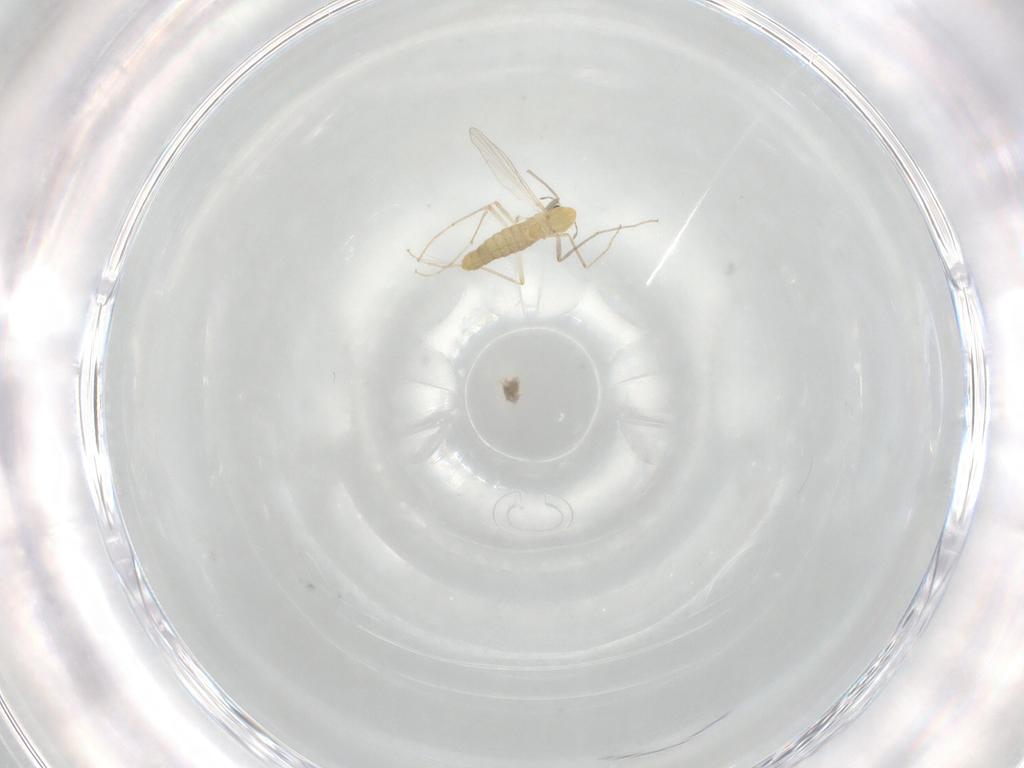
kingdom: Animalia
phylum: Arthropoda
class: Insecta
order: Diptera
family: Chironomidae
